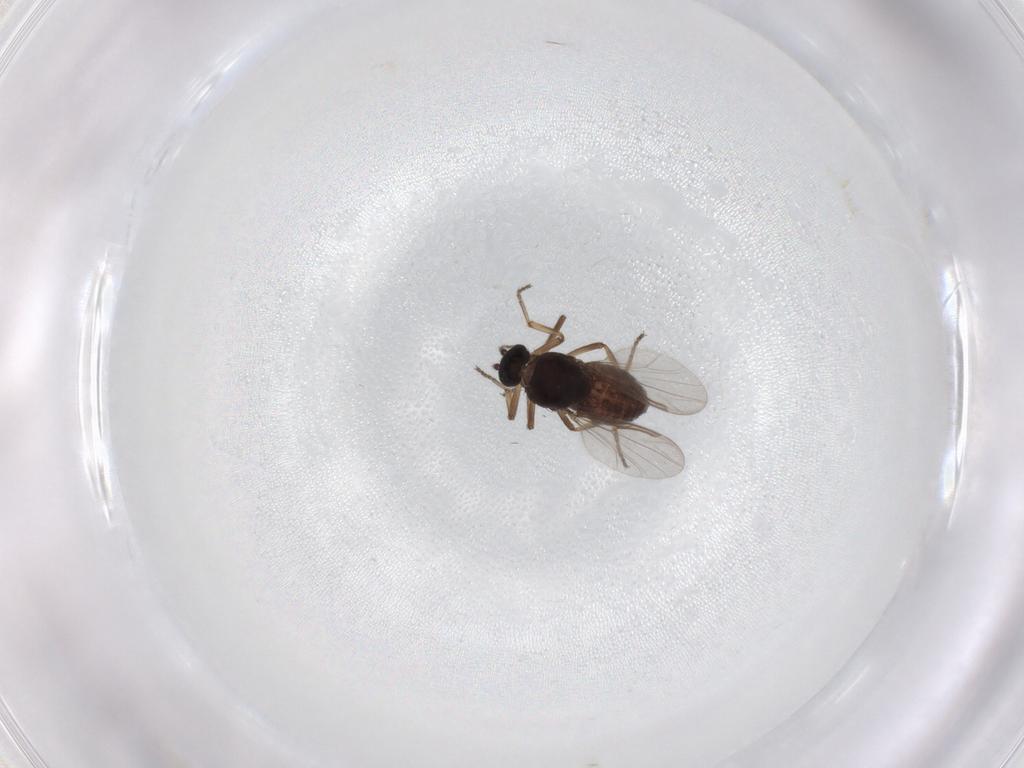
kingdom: Animalia
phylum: Arthropoda
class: Insecta
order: Diptera
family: Ceratopogonidae
